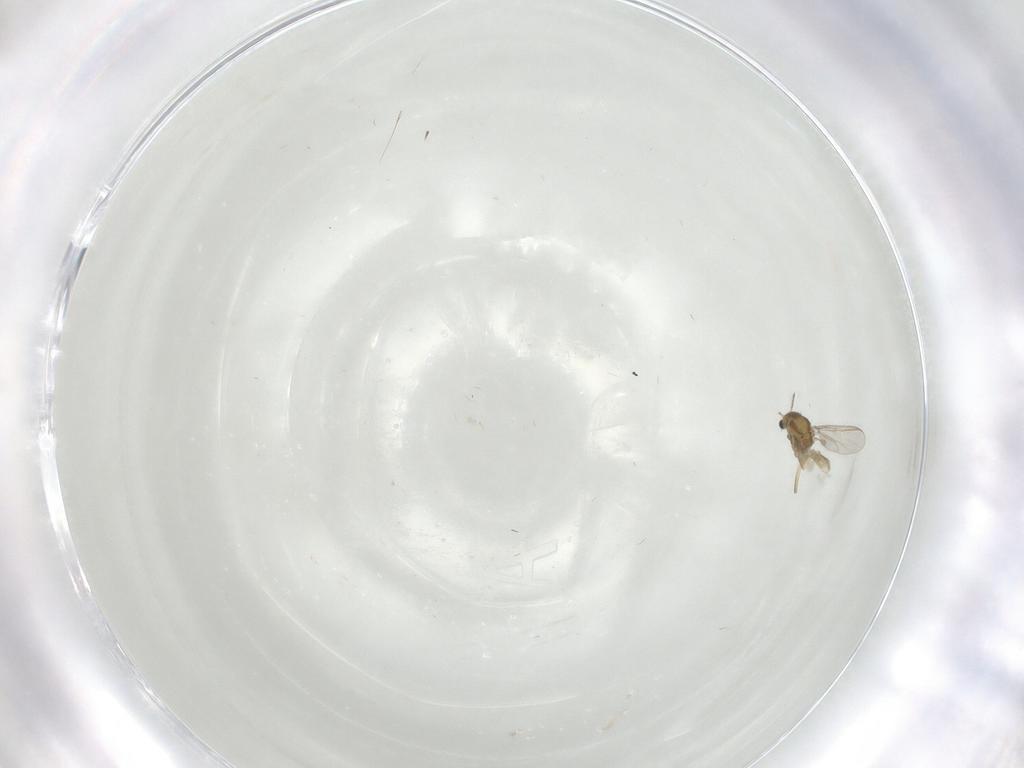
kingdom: Animalia
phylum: Arthropoda
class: Insecta
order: Diptera
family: Chironomidae
